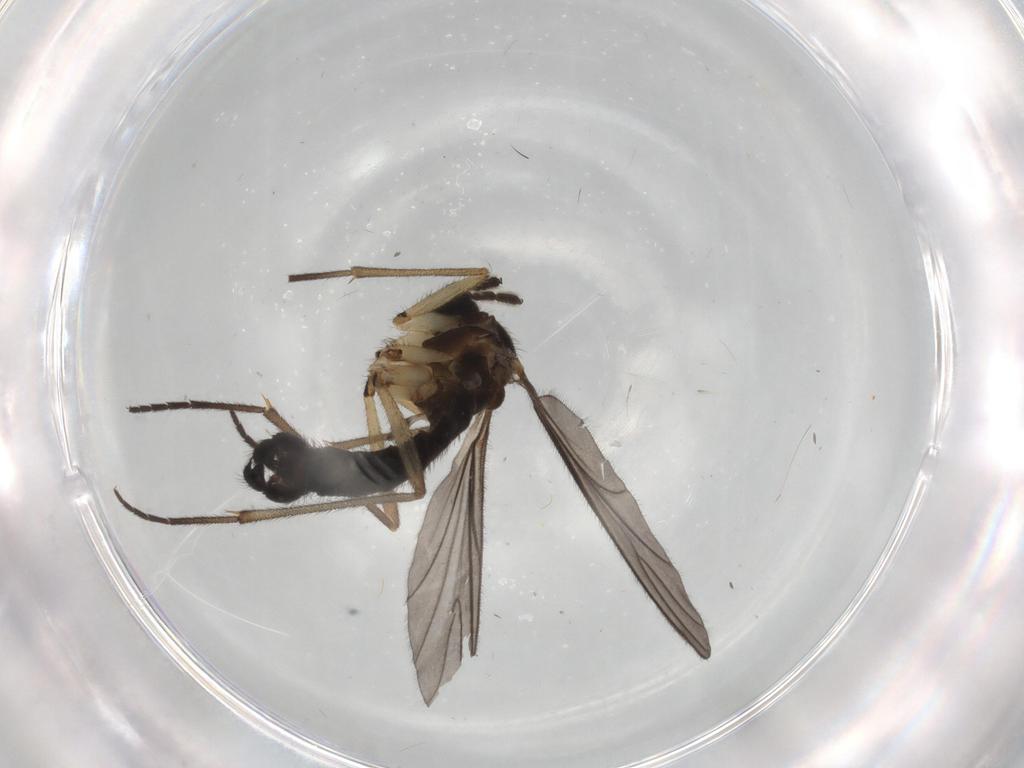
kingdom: Animalia
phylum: Arthropoda
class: Insecta
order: Diptera
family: Sciaridae
